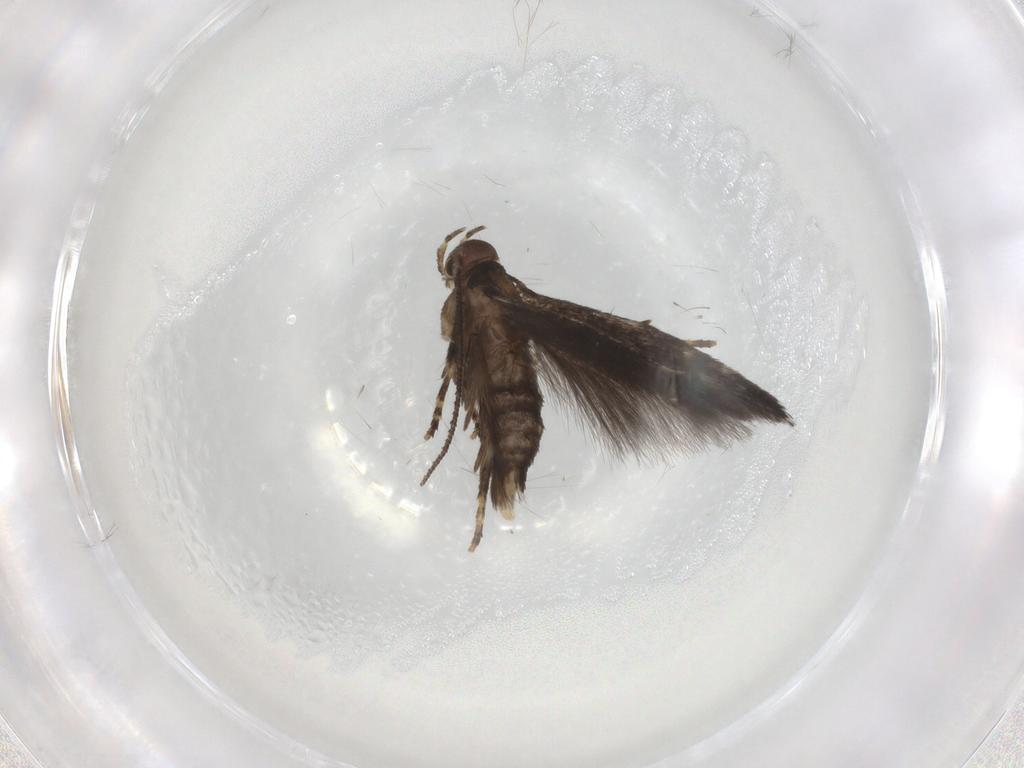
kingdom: Animalia
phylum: Arthropoda
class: Insecta
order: Lepidoptera
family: Elachistidae
